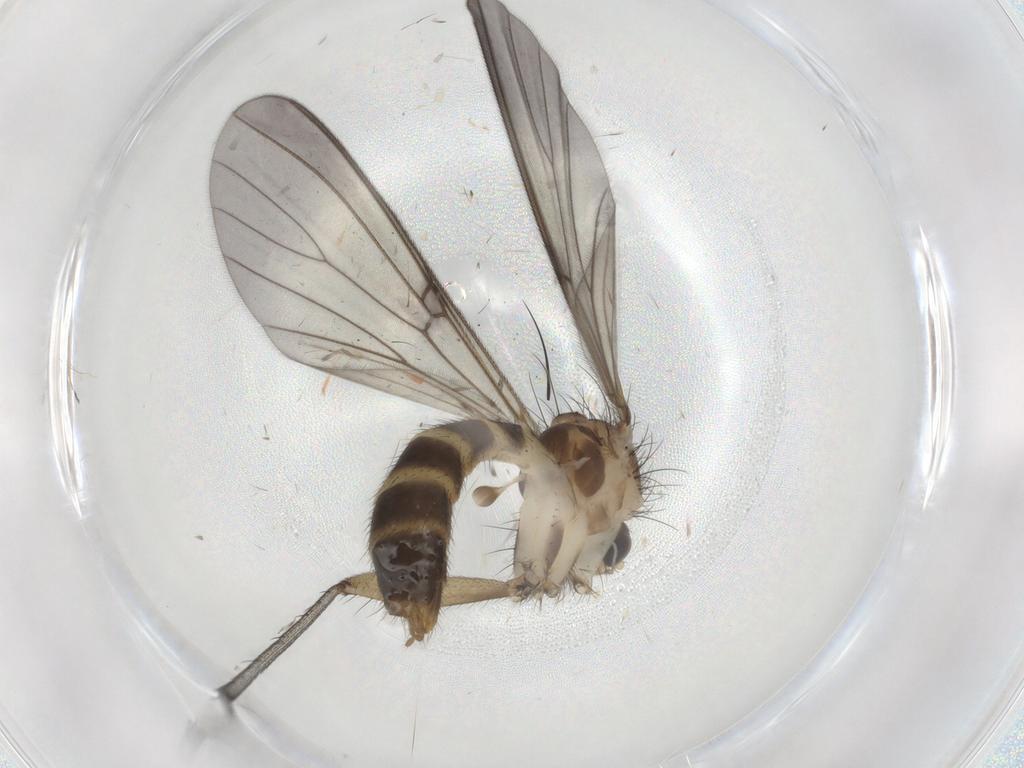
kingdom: Animalia
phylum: Arthropoda
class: Insecta
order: Diptera
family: Mycetophilidae
